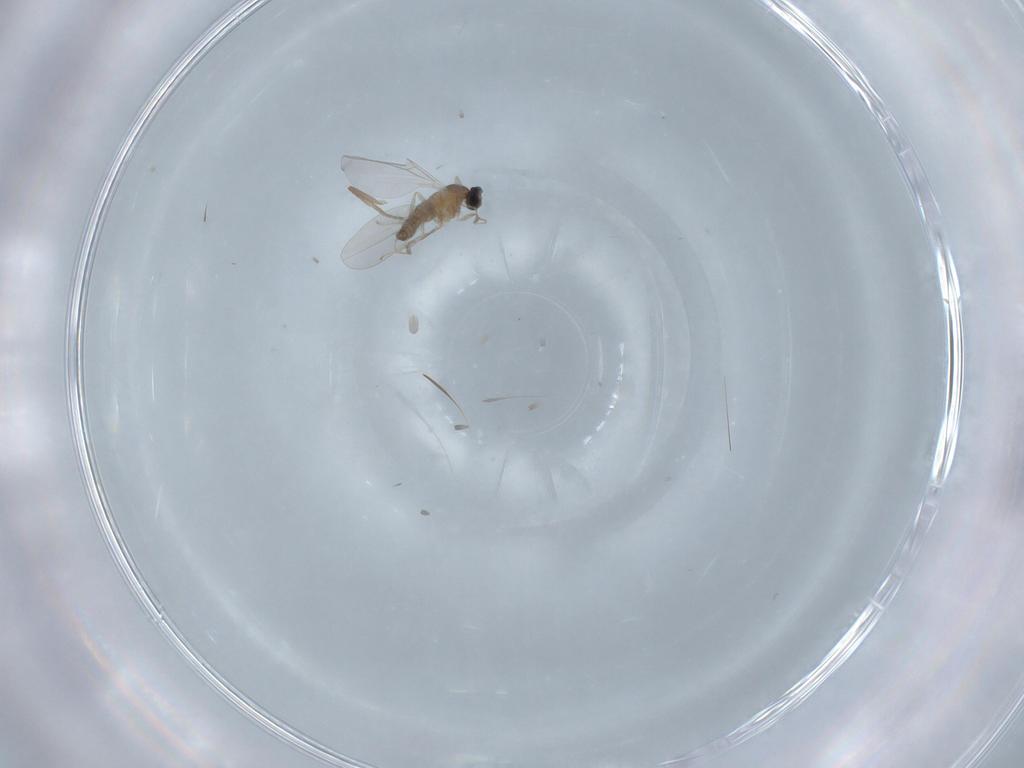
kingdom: Animalia
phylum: Arthropoda
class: Insecta
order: Diptera
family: Cecidomyiidae
